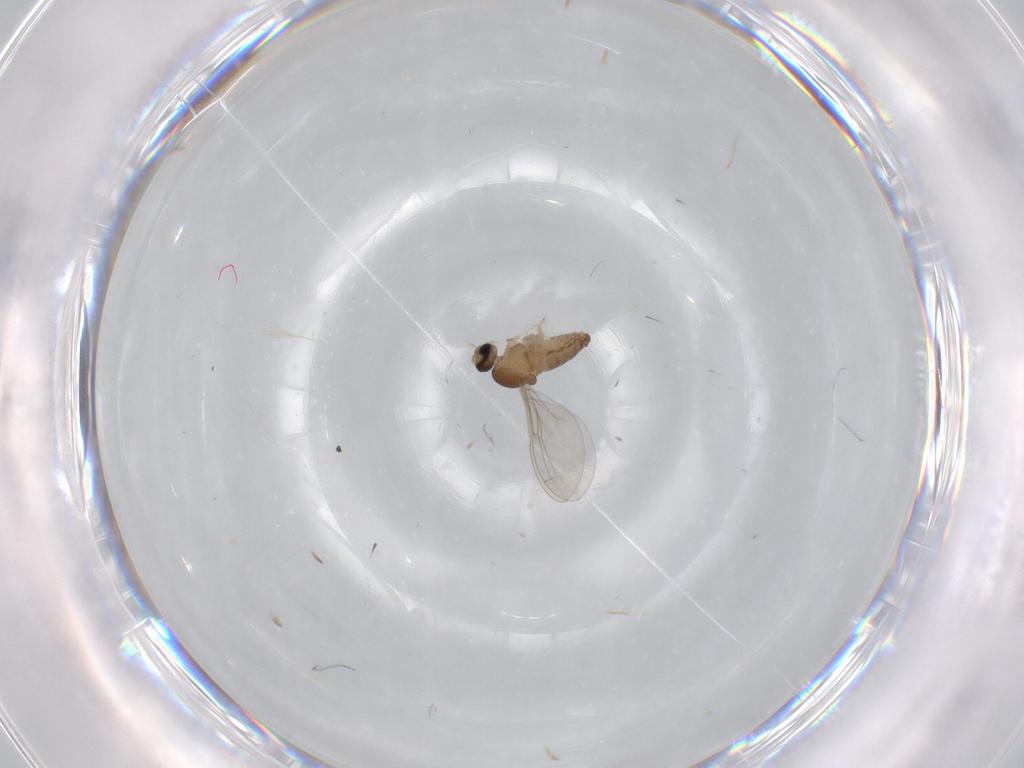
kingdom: Animalia
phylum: Arthropoda
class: Insecta
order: Diptera
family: Cecidomyiidae
